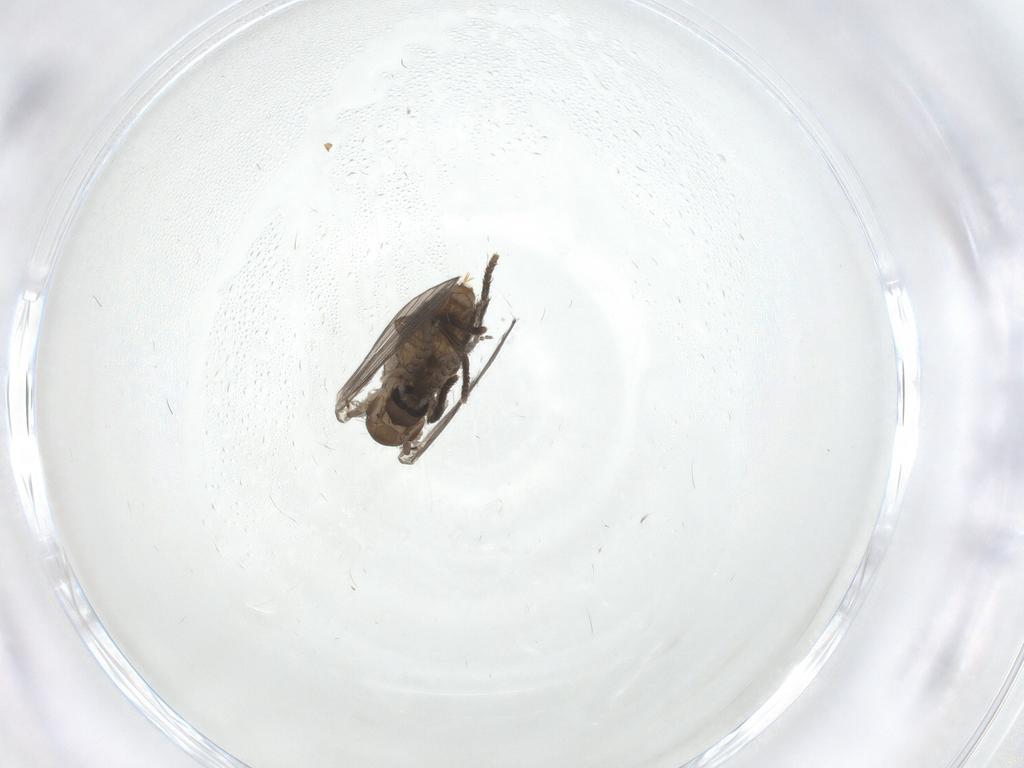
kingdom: Animalia
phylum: Arthropoda
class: Insecta
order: Diptera
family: Psychodidae
